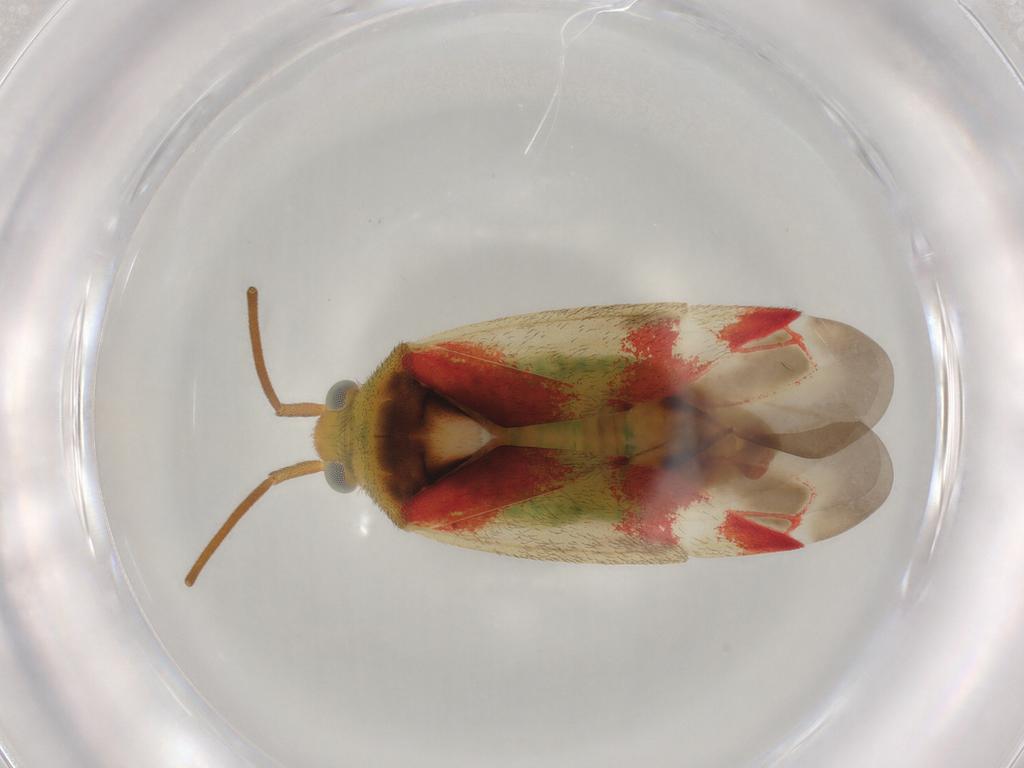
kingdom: Animalia
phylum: Arthropoda
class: Insecta
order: Hemiptera
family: Miridae
